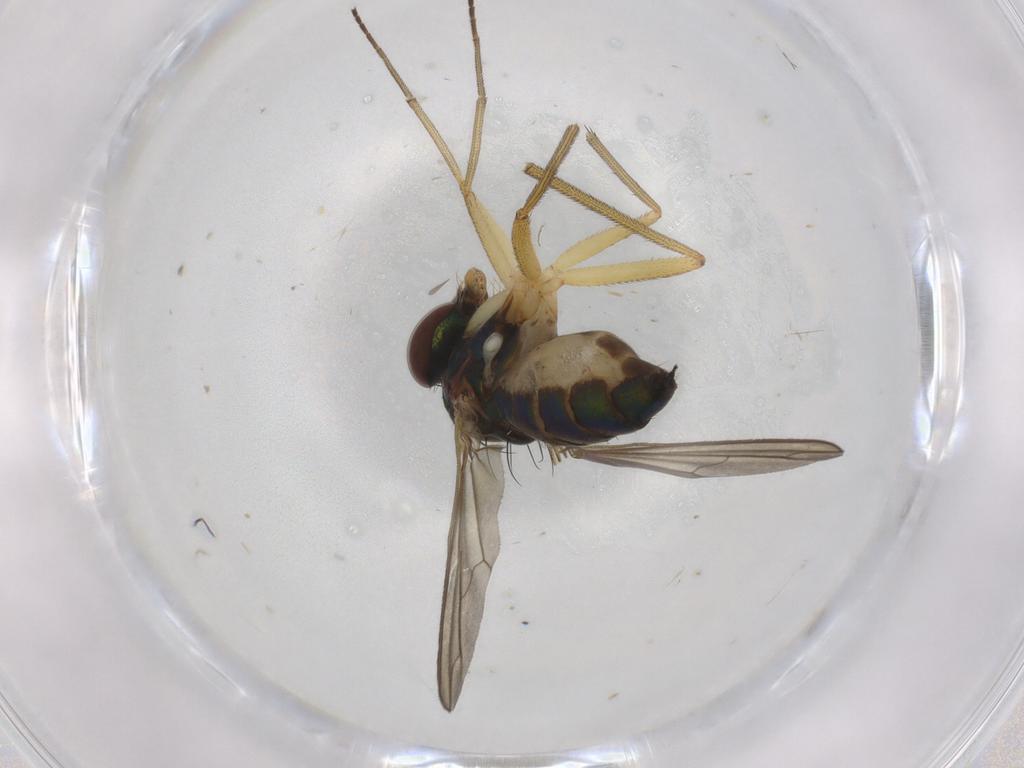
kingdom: Animalia
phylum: Arthropoda
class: Insecta
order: Diptera
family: Dolichopodidae
